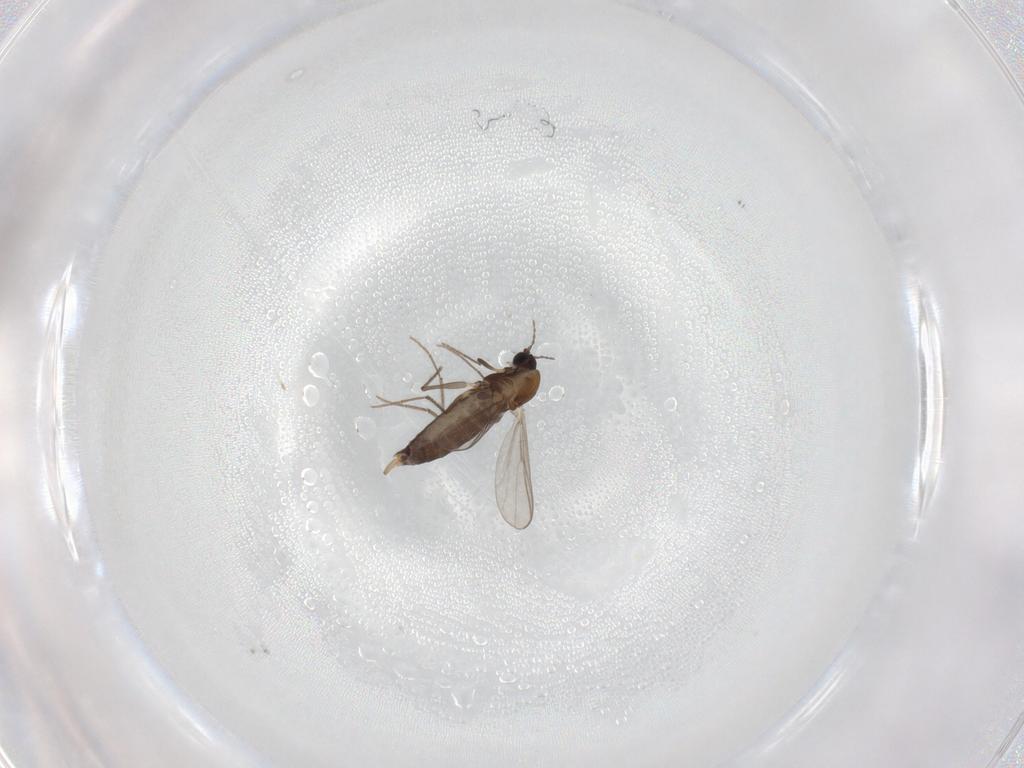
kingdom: Animalia
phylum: Arthropoda
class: Insecta
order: Diptera
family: Chironomidae
